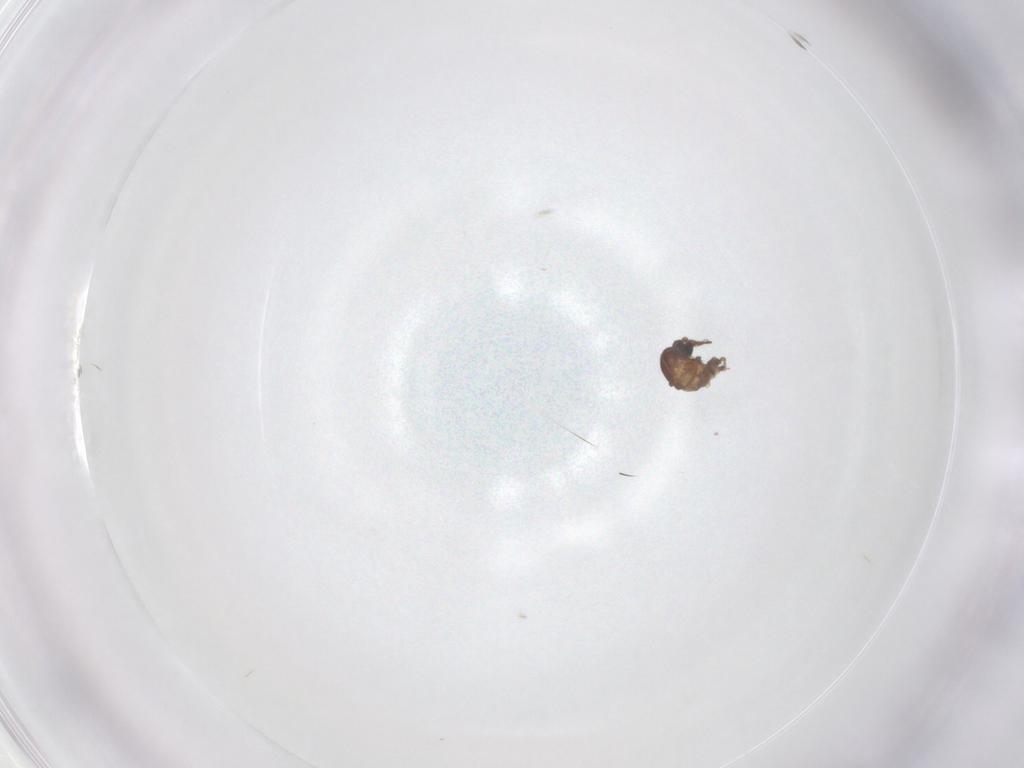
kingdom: Animalia
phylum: Arthropoda
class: Insecta
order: Diptera
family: Ceratopogonidae
